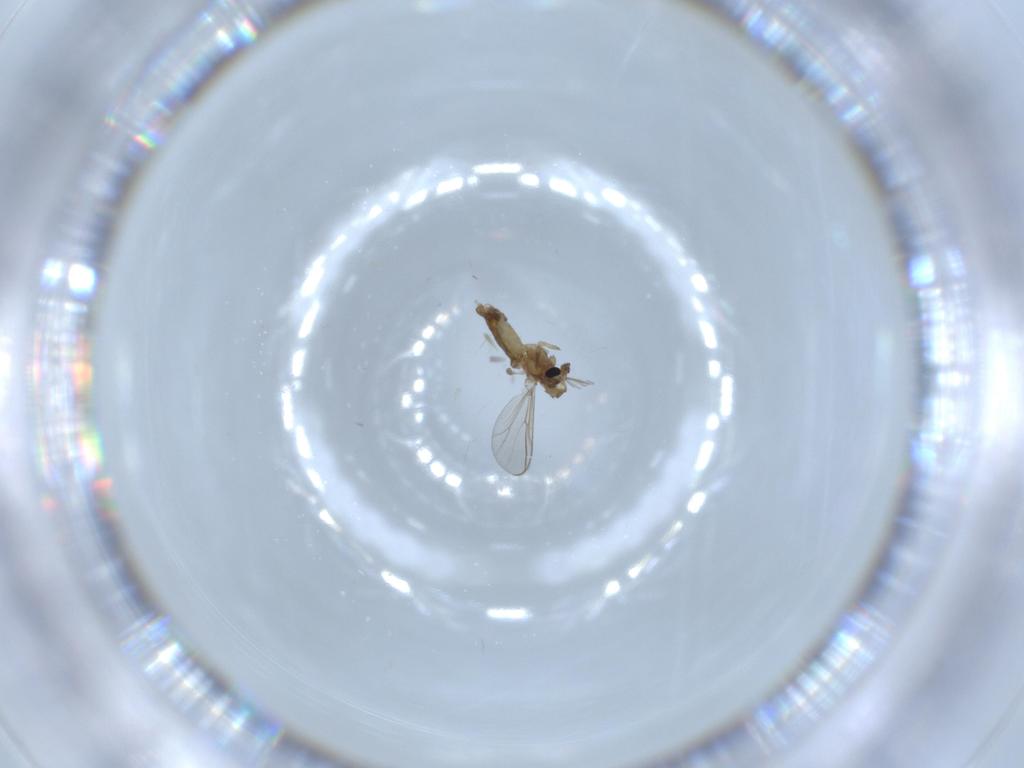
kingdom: Animalia
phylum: Arthropoda
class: Insecta
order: Diptera
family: Chironomidae
